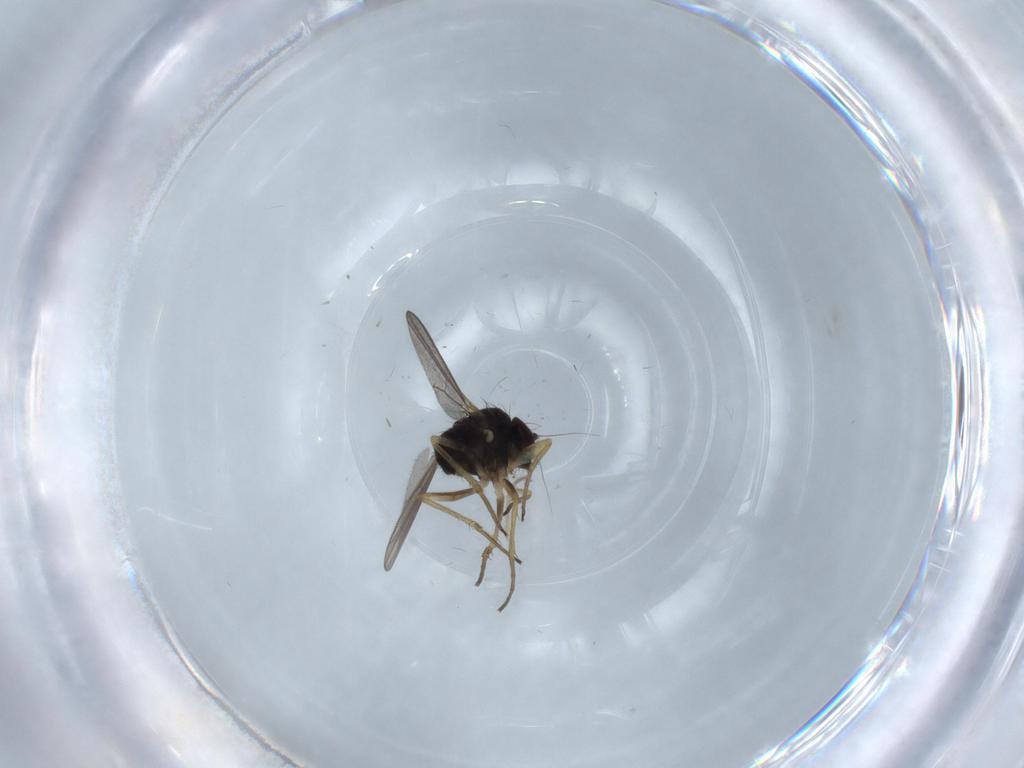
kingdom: Animalia
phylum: Arthropoda
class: Insecta
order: Diptera
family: Dolichopodidae
